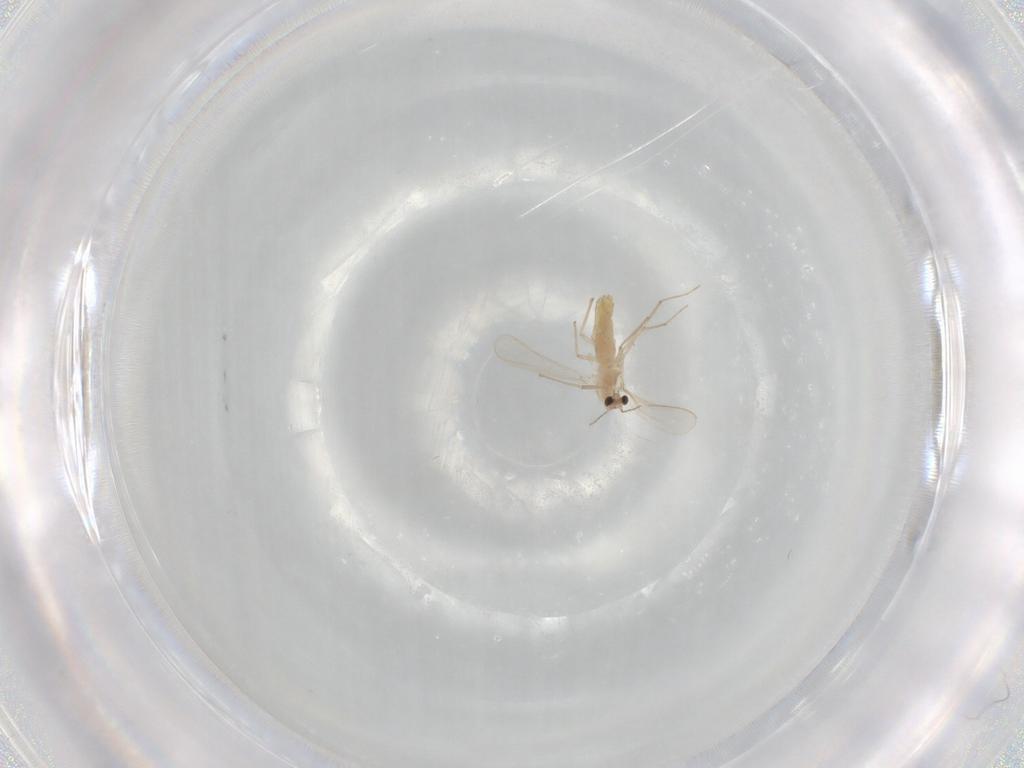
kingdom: Animalia
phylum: Arthropoda
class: Insecta
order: Diptera
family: Chironomidae
